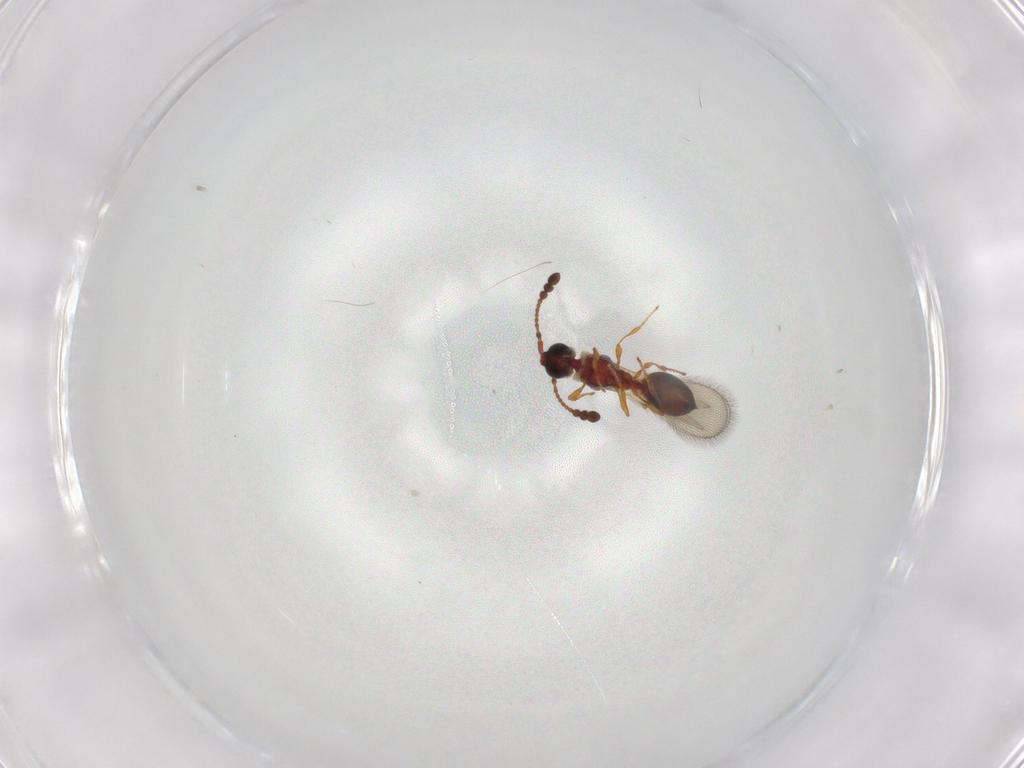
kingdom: Animalia
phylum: Arthropoda
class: Insecta
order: Hymenoptera
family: Diapriidae
